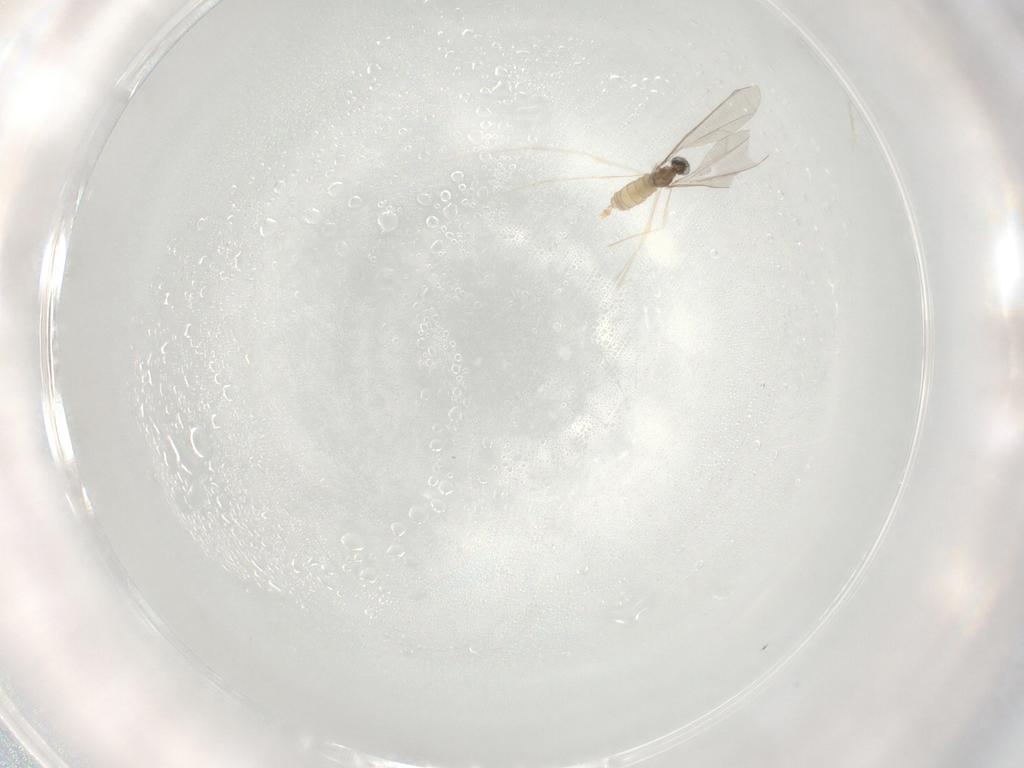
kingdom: Animalia
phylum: Arthropoda
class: Insecta
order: Diptera
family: Cecidomyiidae
